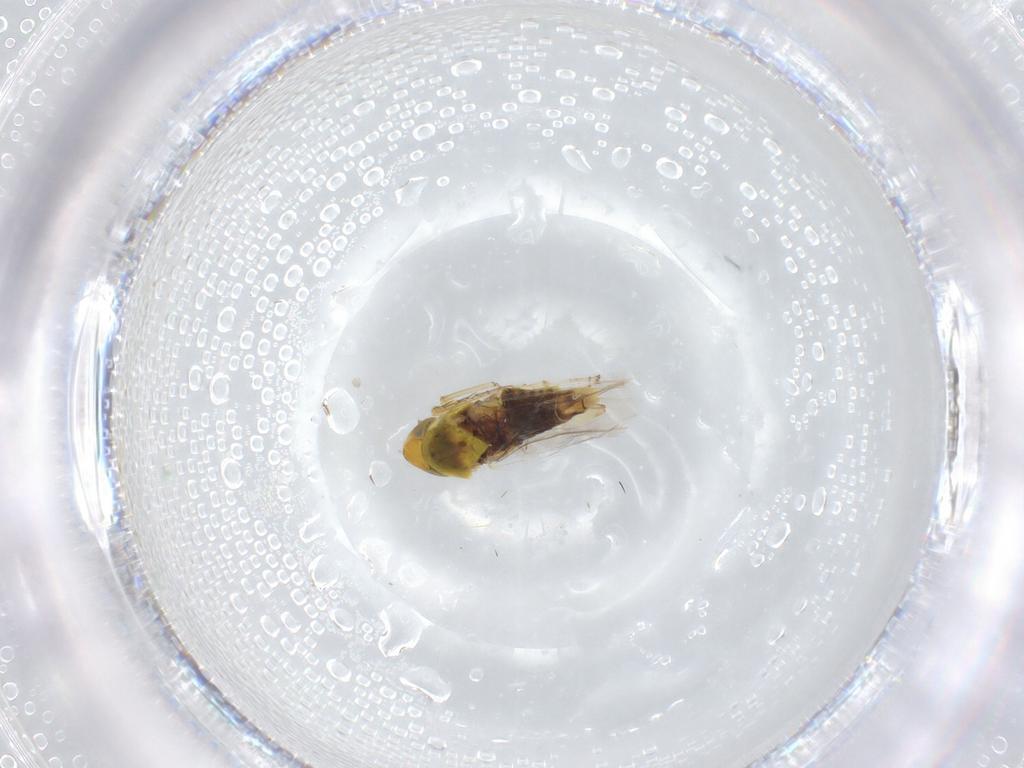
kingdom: Animalia
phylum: Arthropoda
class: Insecta
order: Hemiptera
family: Cicadellidae
